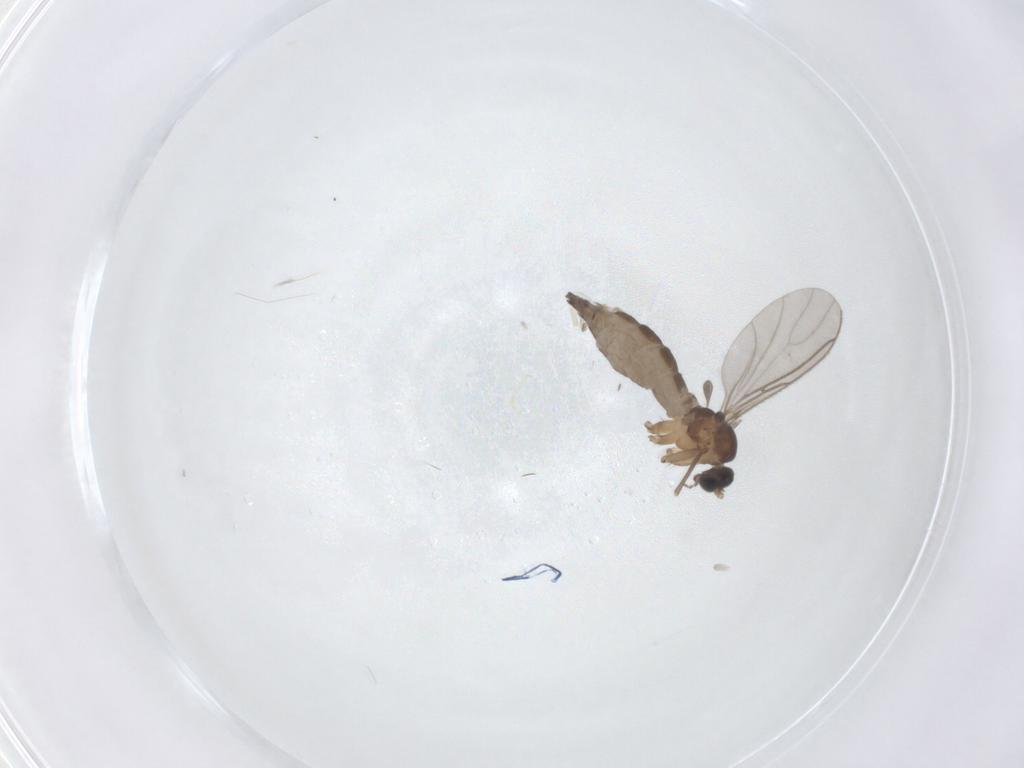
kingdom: Animalia
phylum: Arthropoda
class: Insecta
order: Diptera
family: Sciaridae
